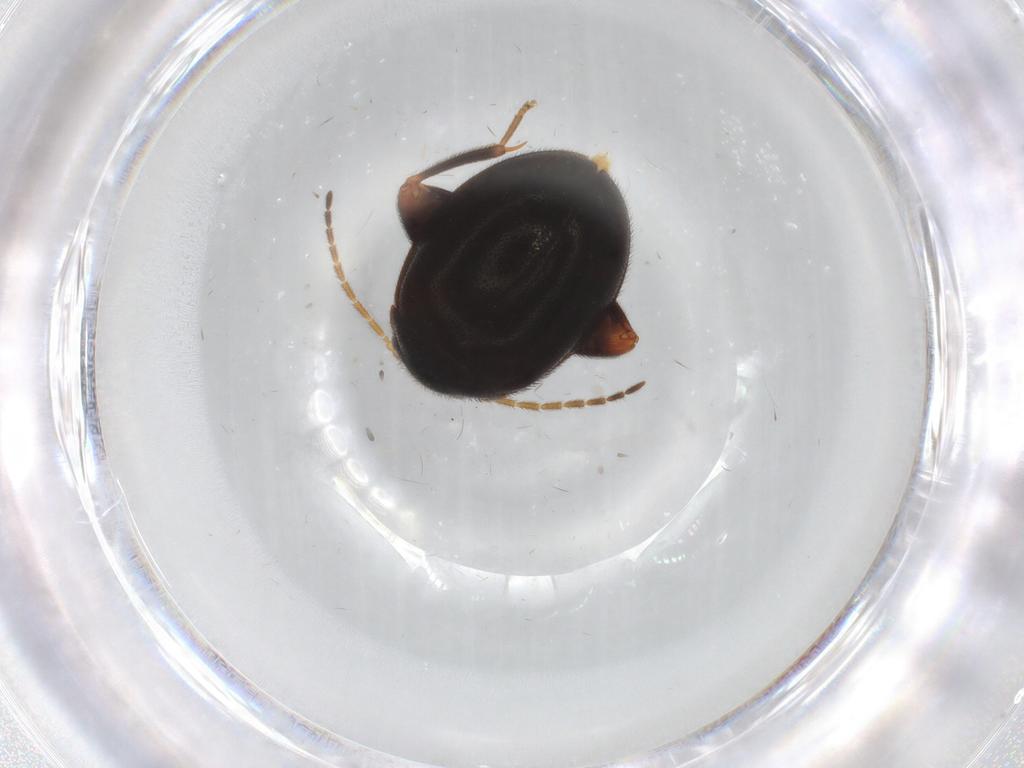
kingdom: Animalia
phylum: Arthropoda
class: Insecta
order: Coleoptera
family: Scirtidae
